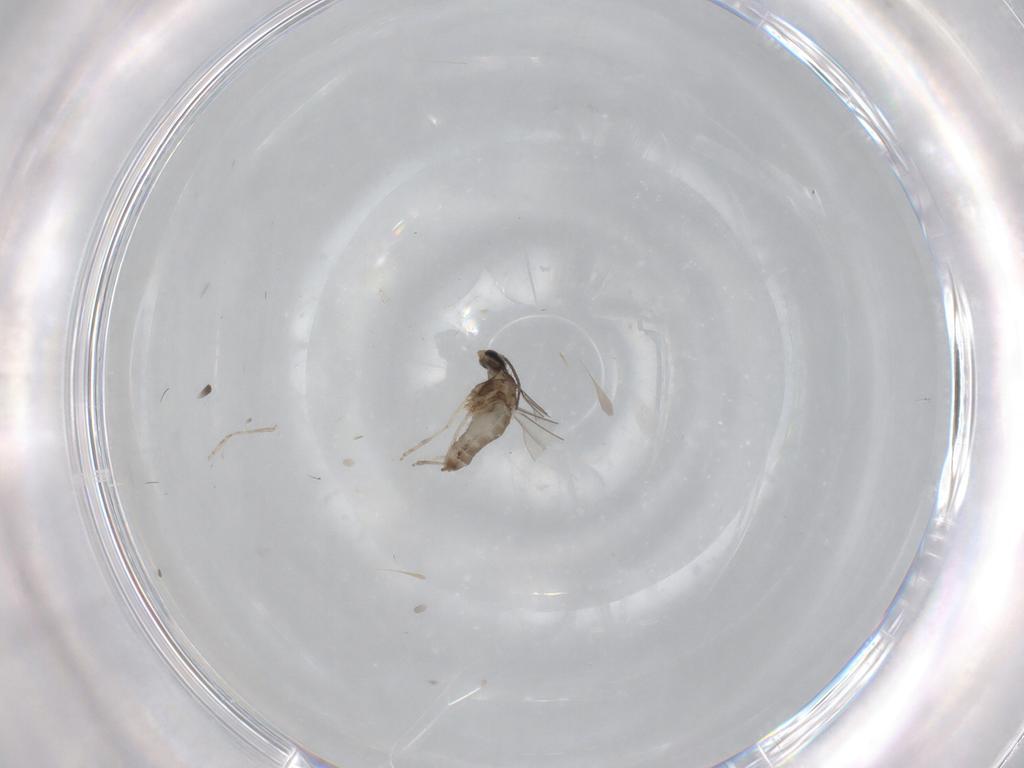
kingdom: Animalia
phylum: Arthropoda
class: Insecta
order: Diptera
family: Cecidomyiidae
